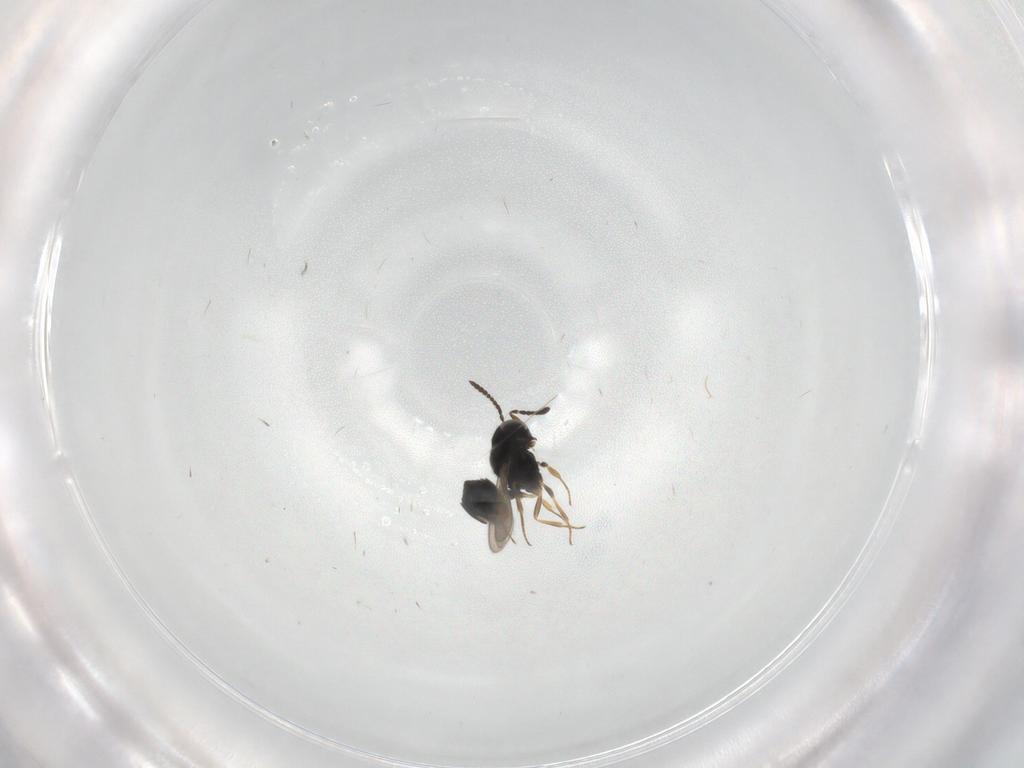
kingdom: Animalia
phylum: Arthropoda
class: Insecta
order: Hymenoptera
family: Scelionidae
